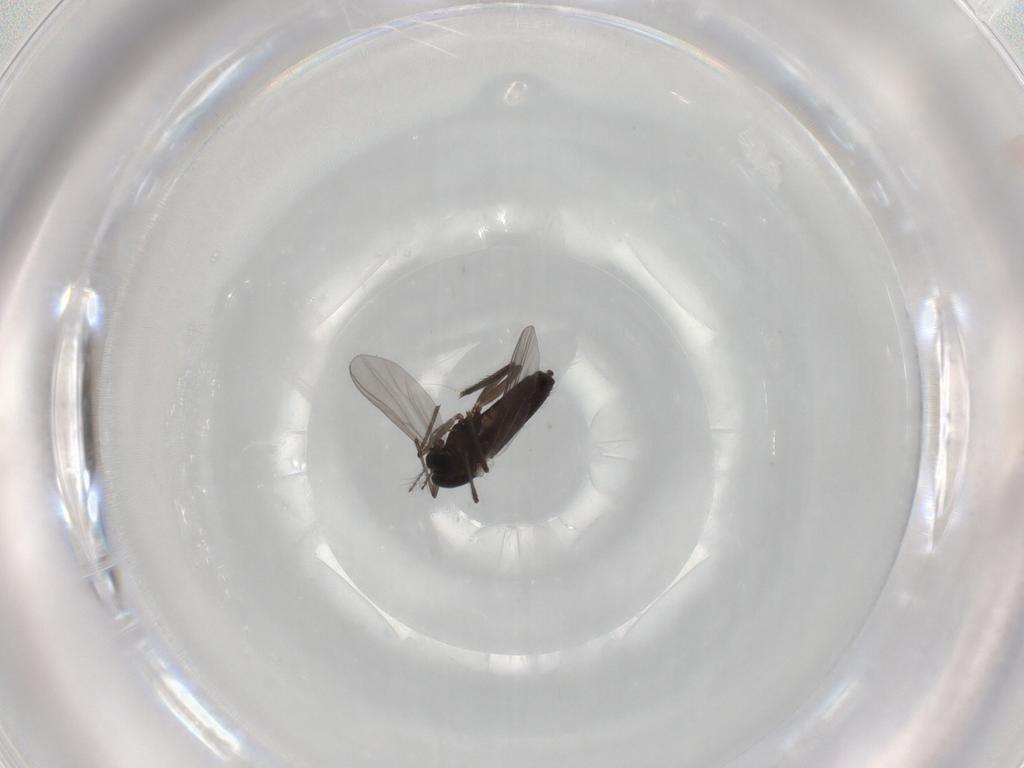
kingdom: Animalia
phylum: Arthropoda
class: Insecta
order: Diptera
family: Chironomidae
